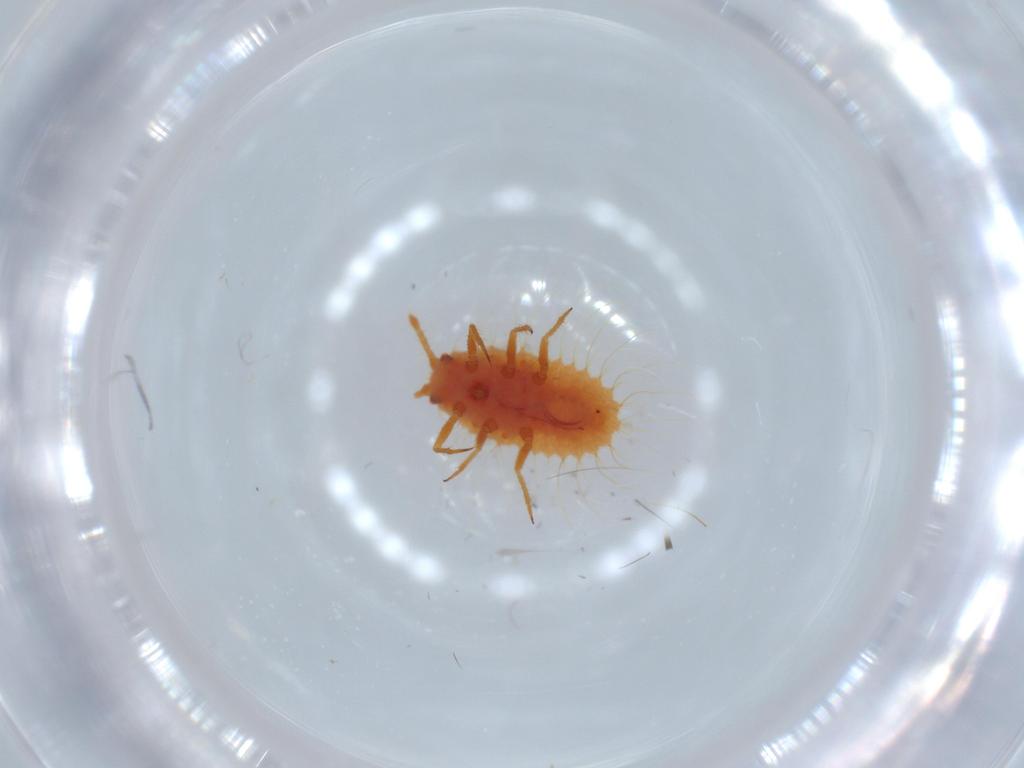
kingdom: Animalia
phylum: Arthropoda
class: Insecta
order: Hemiptera
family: Coccoidea_incertae_sedis
